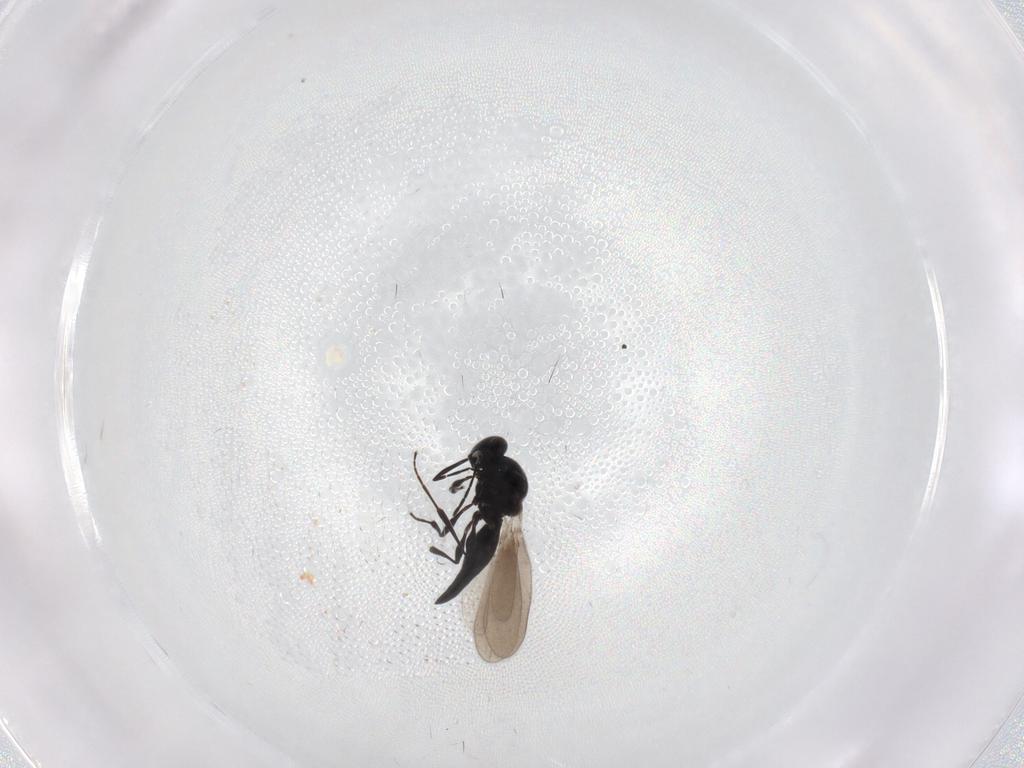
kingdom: Animalia
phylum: Arthropoda
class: Insecta
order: Hymenoptera
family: Platygastridae
